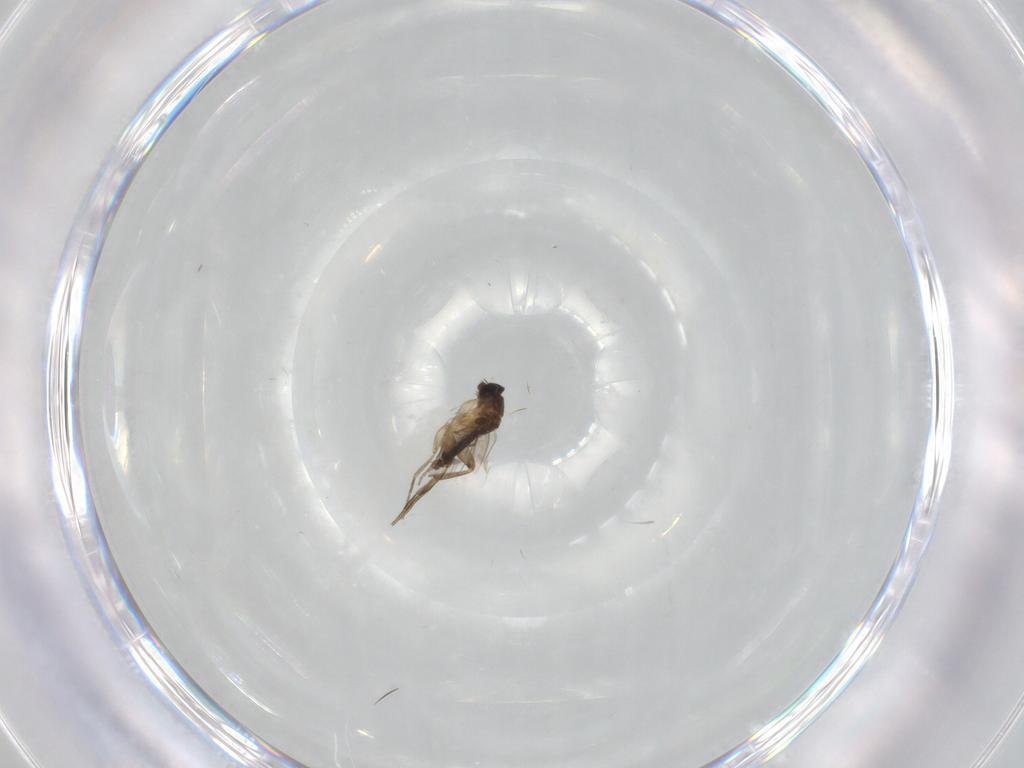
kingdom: Animalia
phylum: Arthropoda
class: Insecta
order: Diptera
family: Phoridae
